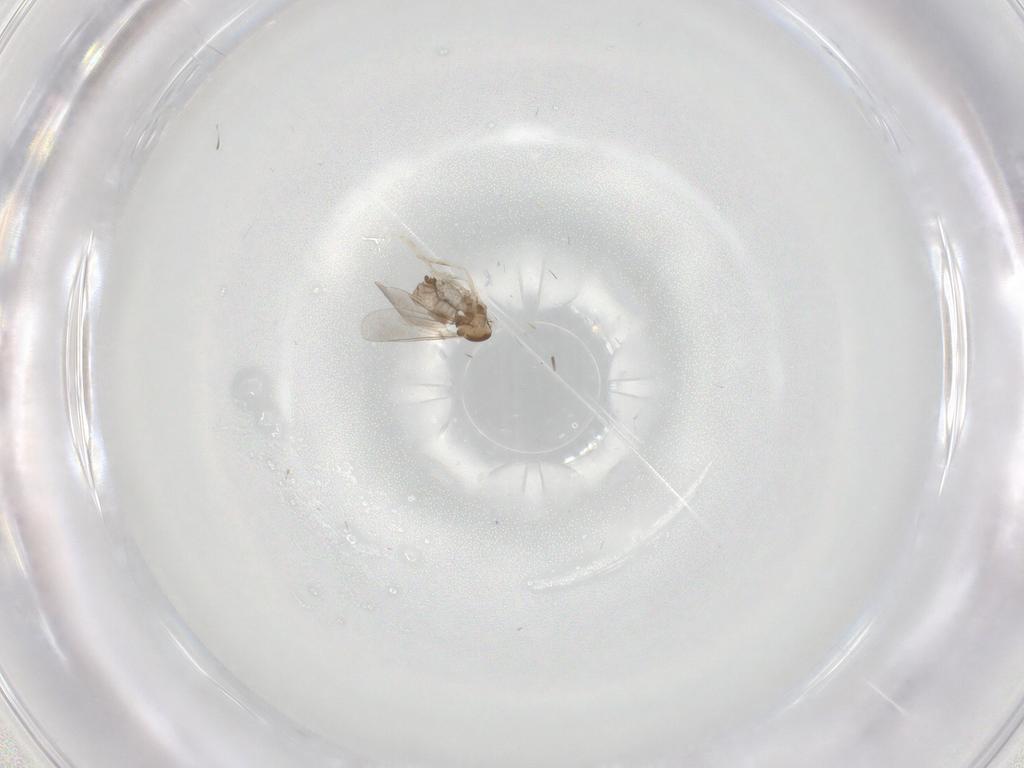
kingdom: Animalia
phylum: Arthropoda
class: Insecta
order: Diptera
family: Cecidomyiidae
